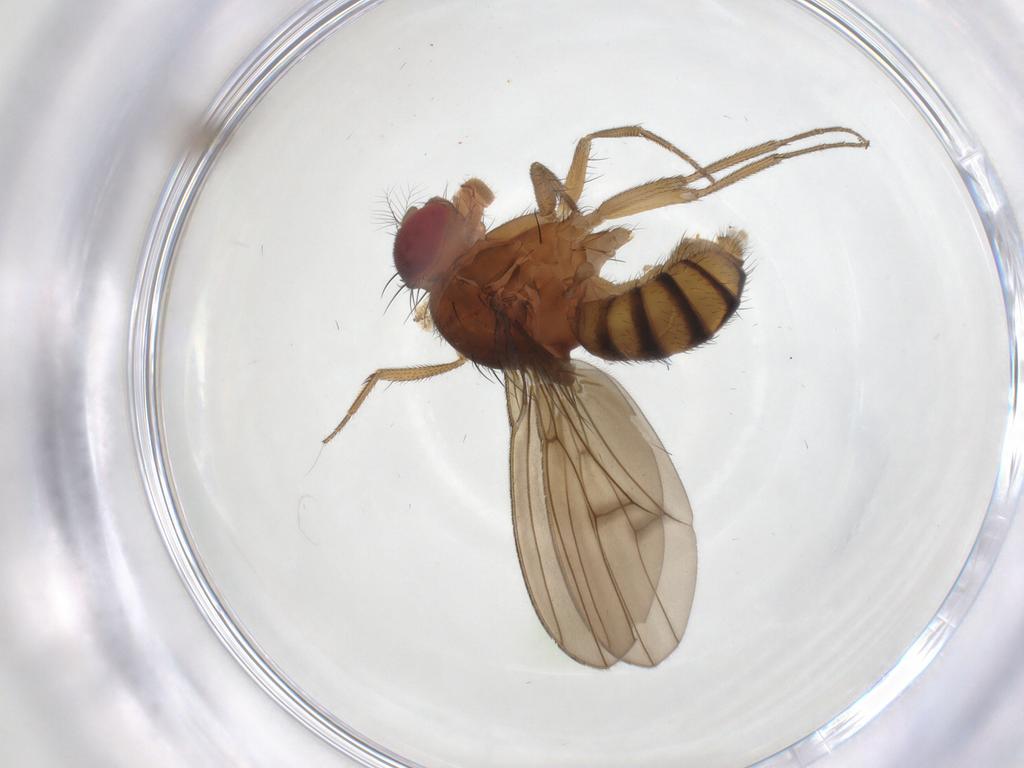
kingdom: Animalia
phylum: Arthropoda
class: Insecta
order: Diptera
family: Drosophilidae
